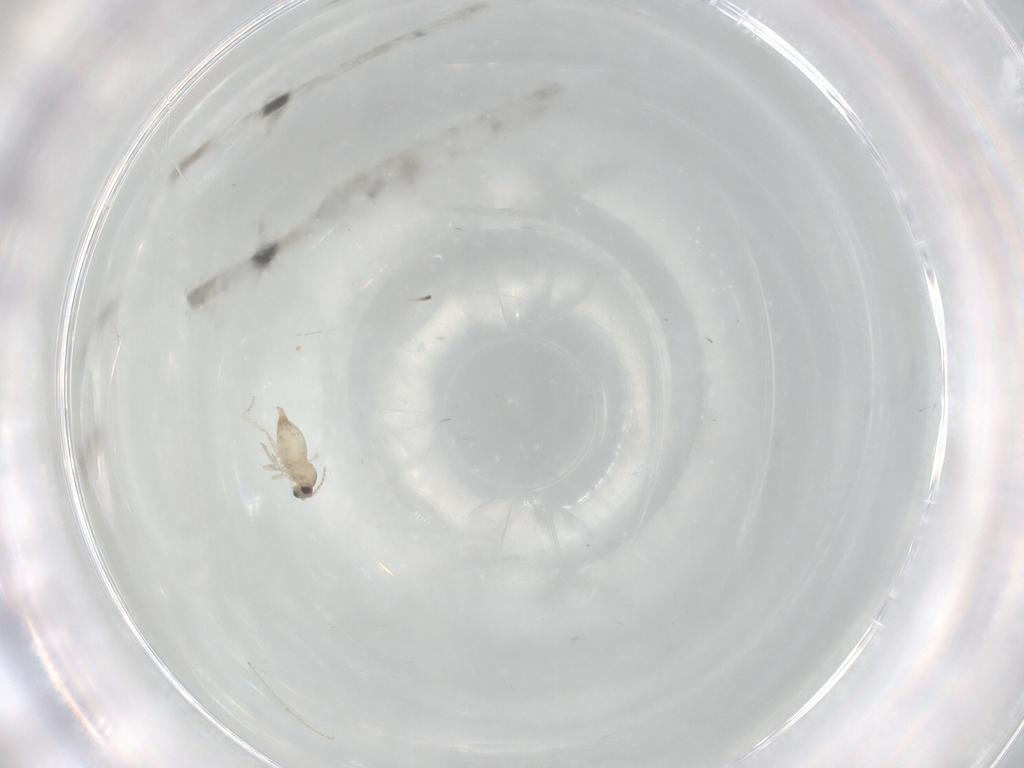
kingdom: Animalia
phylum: Arthropoda
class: Insecta
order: Diptera
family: Cecidomyiidae
